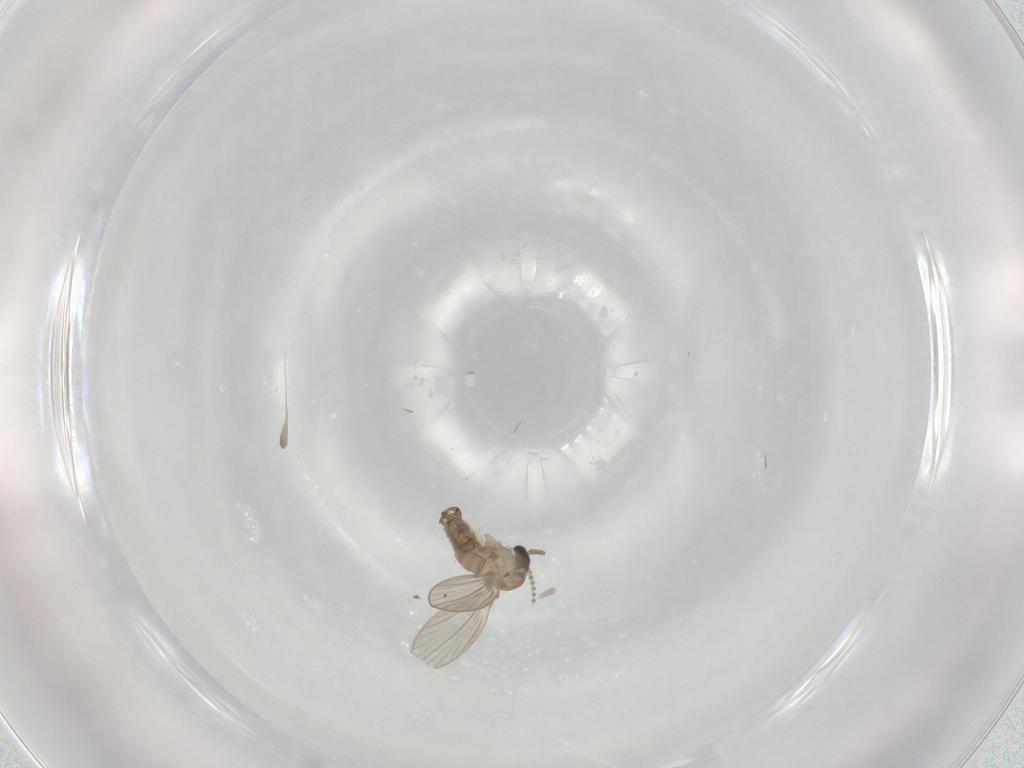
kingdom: Animalia
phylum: Arthropoda
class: Insecta
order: Diptera
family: Psychodidae
